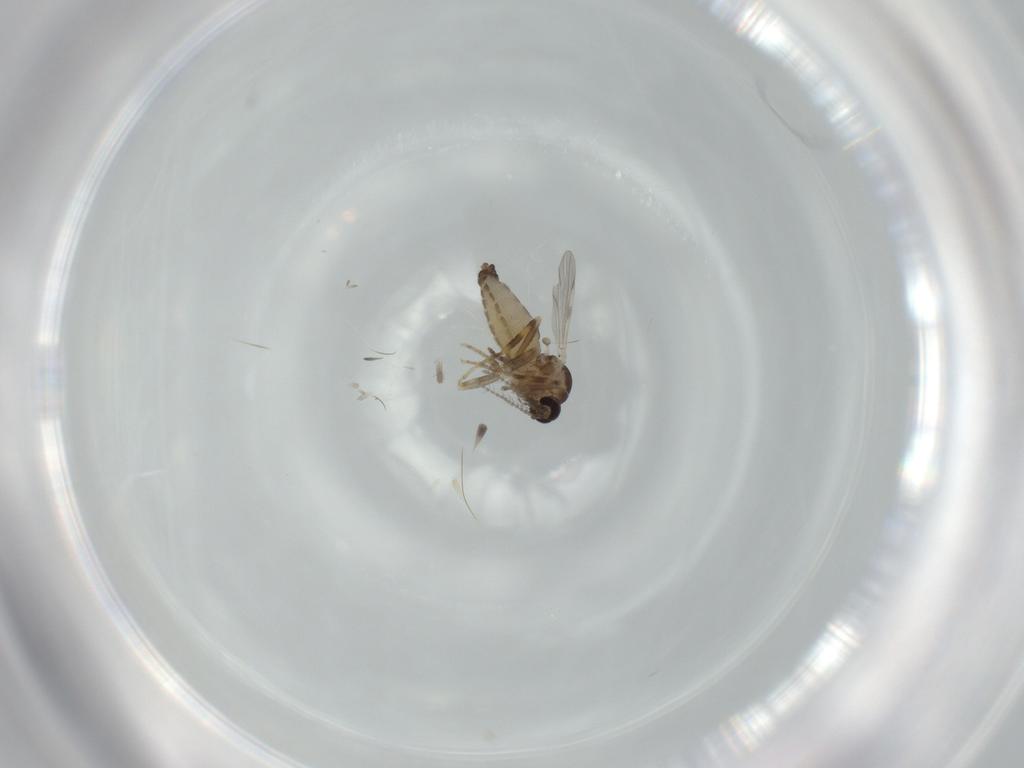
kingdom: Animalia
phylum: Arthropoda
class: Insecta
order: Diptera
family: Ceratopogonidae
